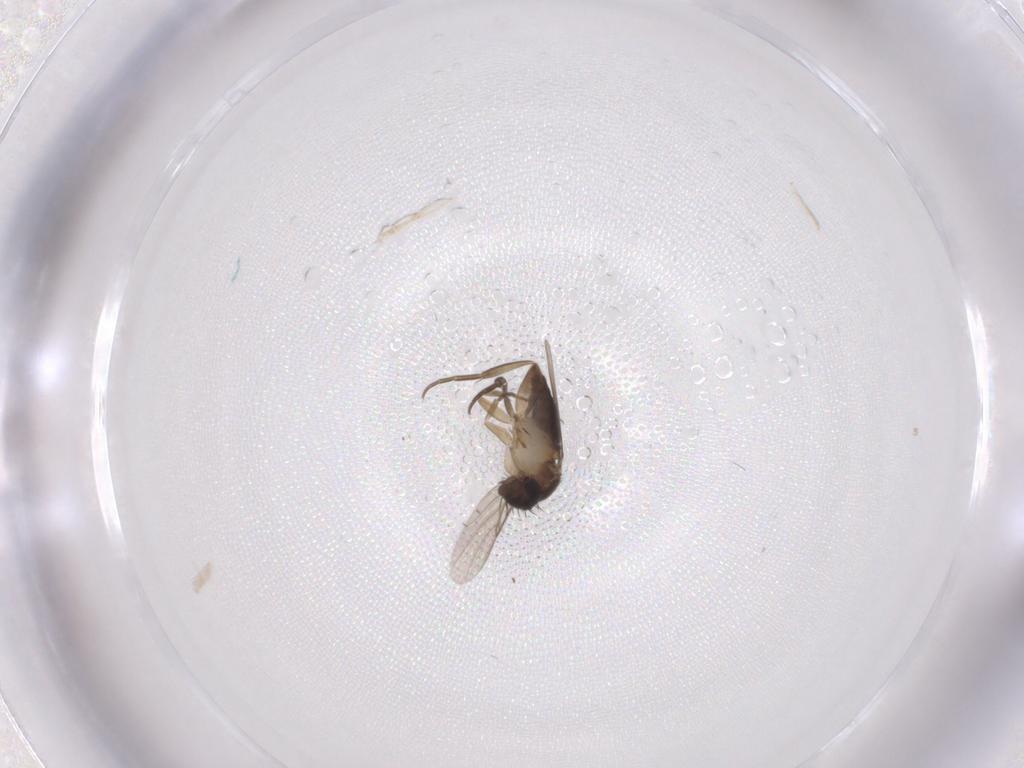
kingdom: Animalia
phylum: Arthropoda
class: Insecta
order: Diptera
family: Phoridae
